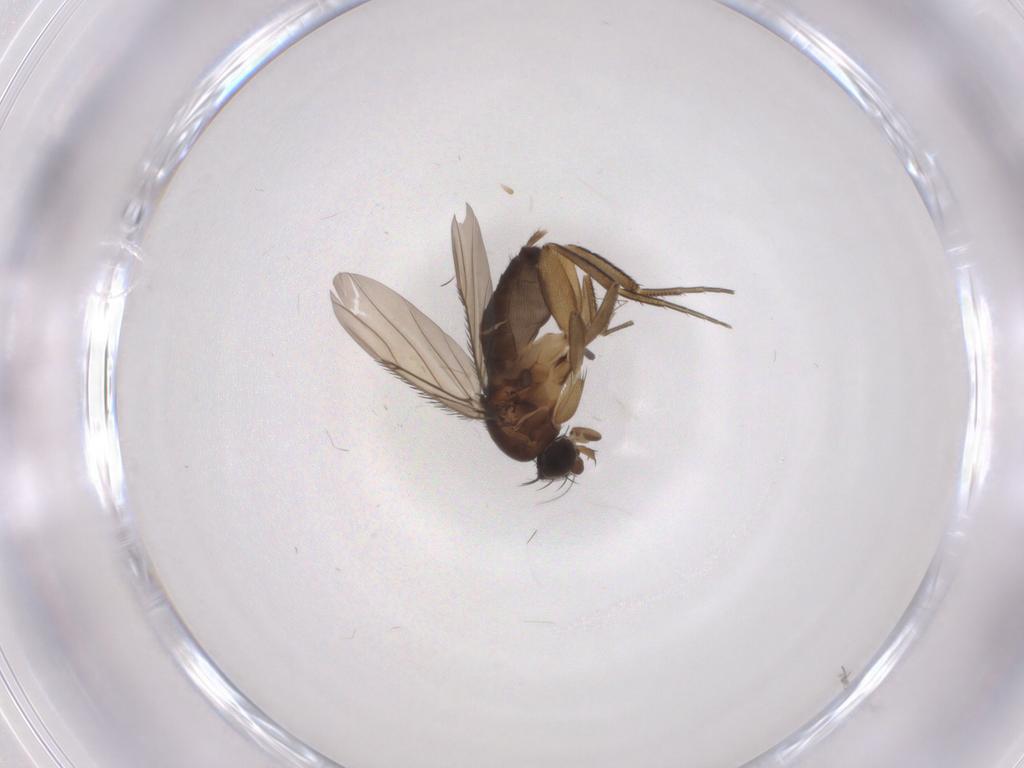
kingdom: Animalia
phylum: Arthropoda
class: Insecta
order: Diptera
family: Phoridae
